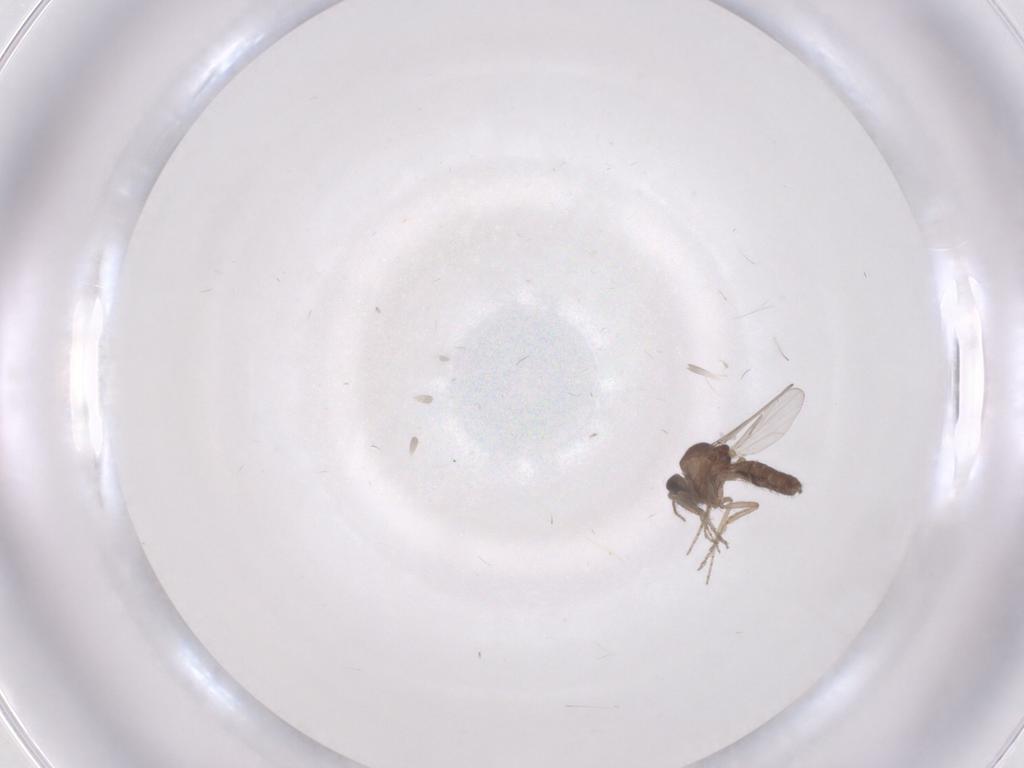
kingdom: Animalia
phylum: Arthropoda
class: Insecta
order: Diptera
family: Ceratopogonidae
